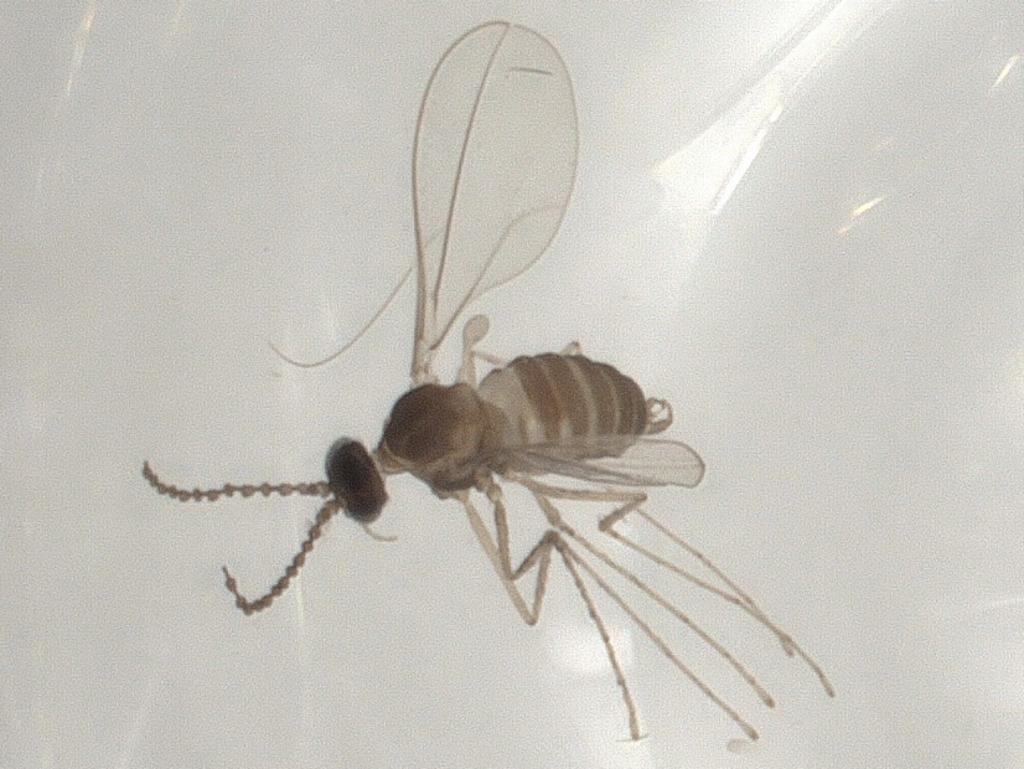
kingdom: Animalia
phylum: Arthropoda
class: Insecta
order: Diptera
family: Cecidomyiidae
